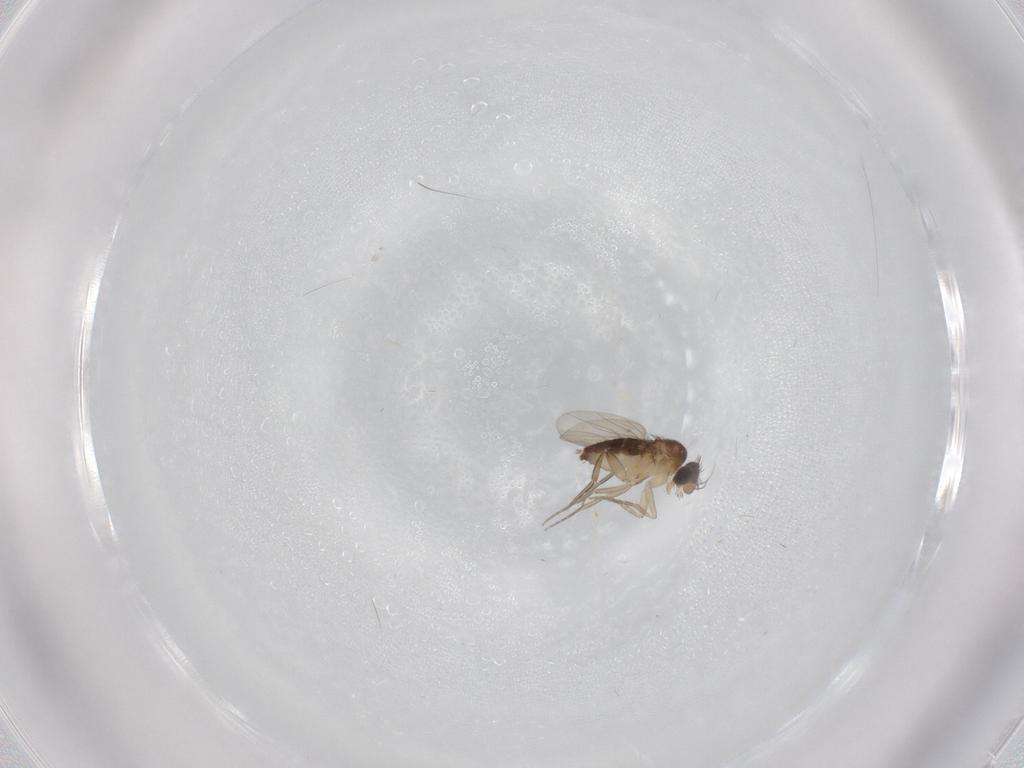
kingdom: Animalia
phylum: Arthropoda
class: Insecta
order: Diptera
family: Phoridae
